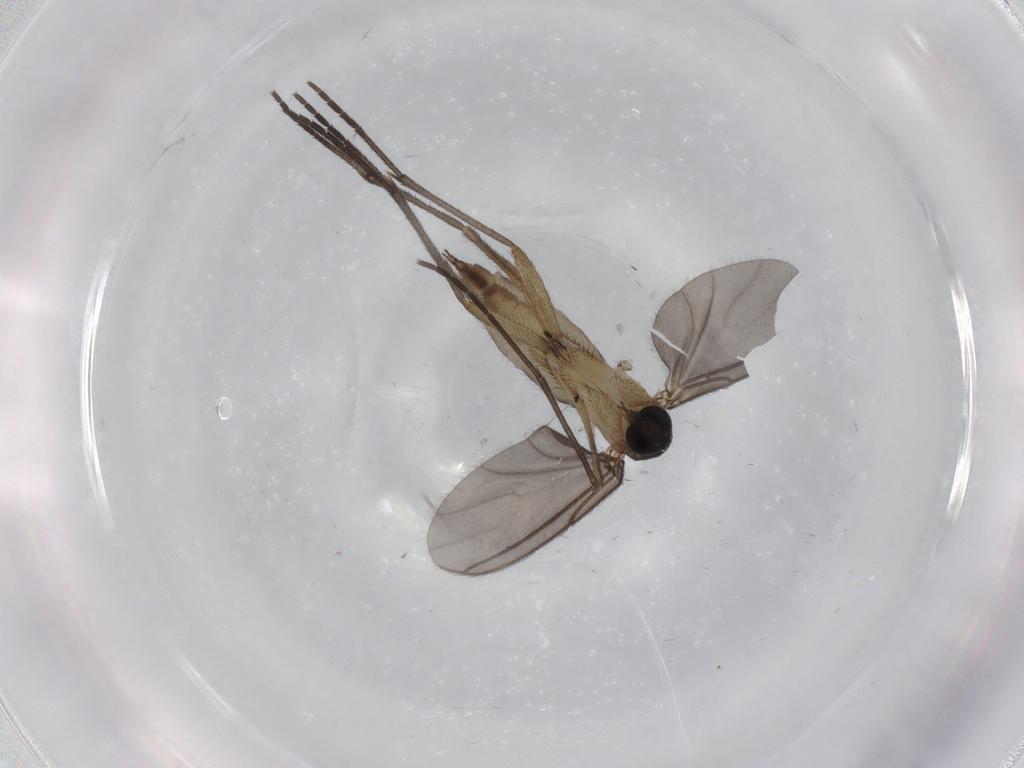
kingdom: Animalia
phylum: Arthropoda
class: Insecta
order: Diptera
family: Sciaridae
